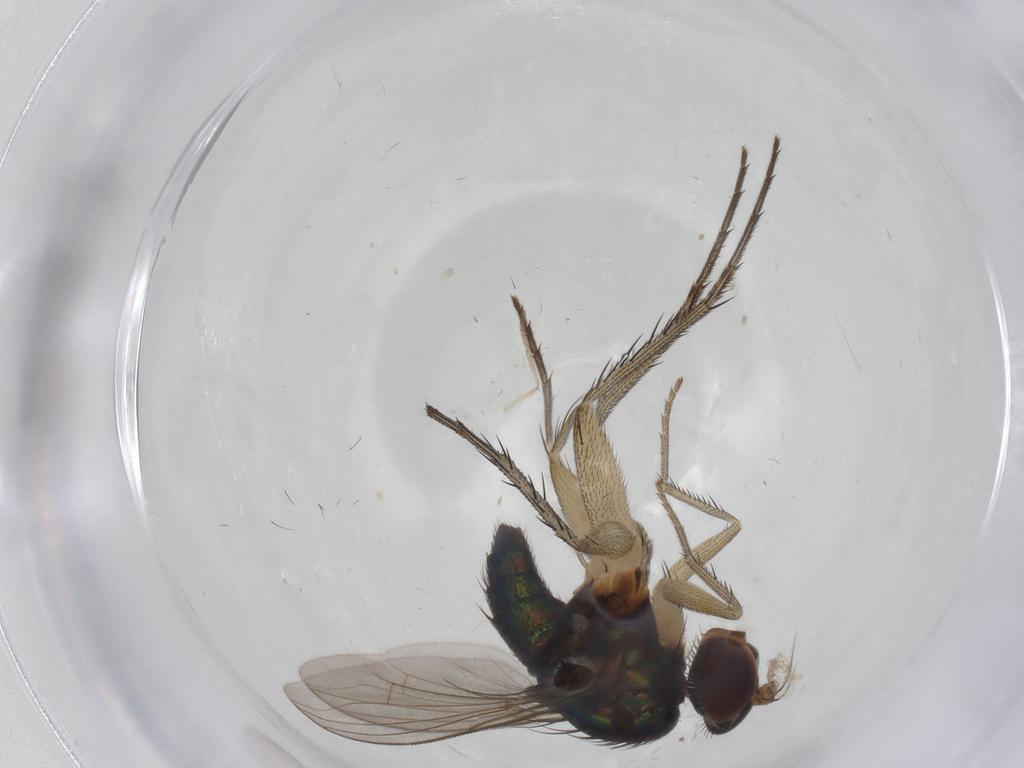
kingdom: Animalia
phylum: Arthropoda
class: Insecta
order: Diptera
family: Dolichopodidae
